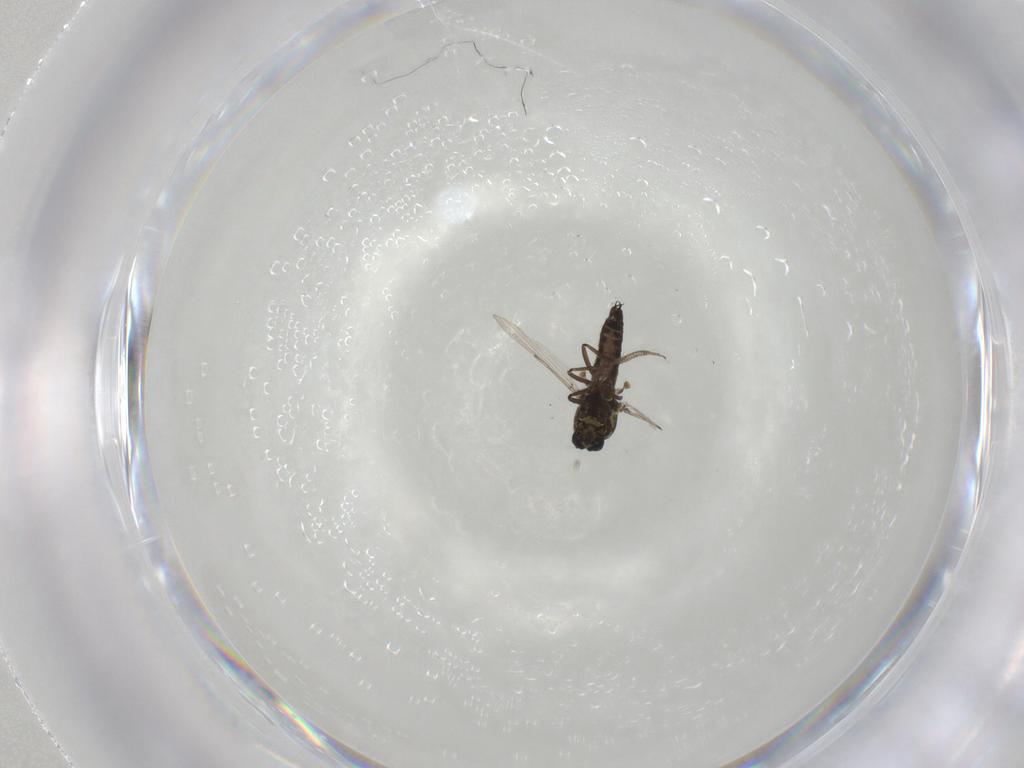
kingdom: Animalia
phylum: Arthropoda
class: Insecta
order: Diptera
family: Ceratopogonidae
